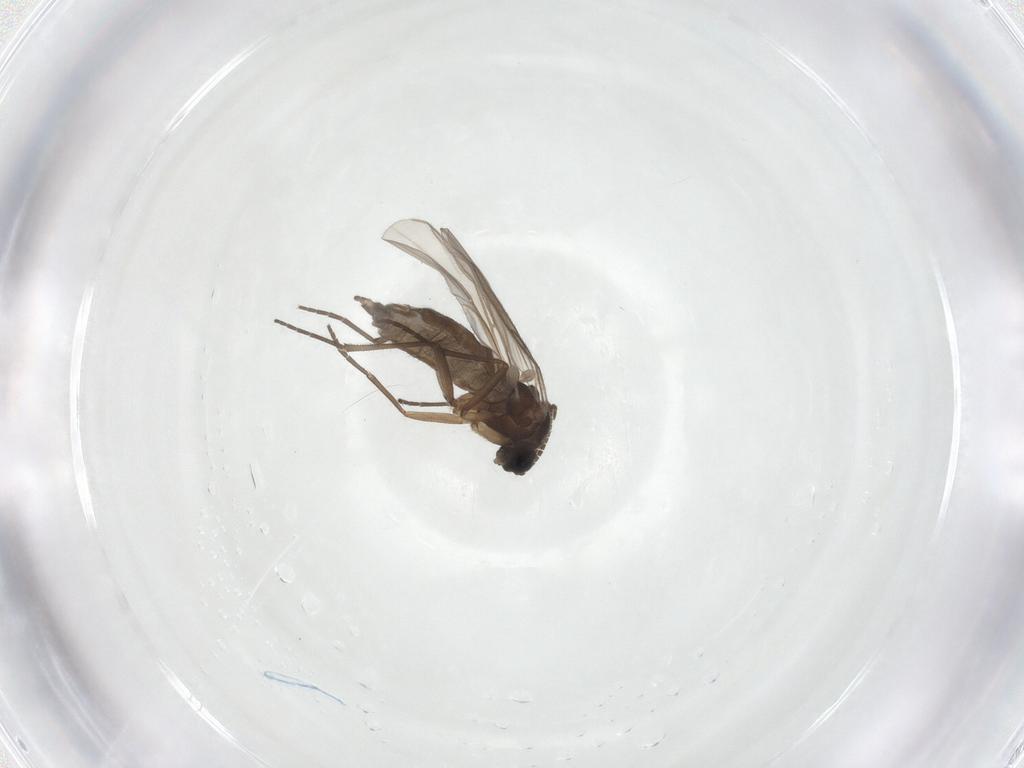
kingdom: Animalia
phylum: Arthropoda
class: Insecta
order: Diptera
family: Sciaridae
